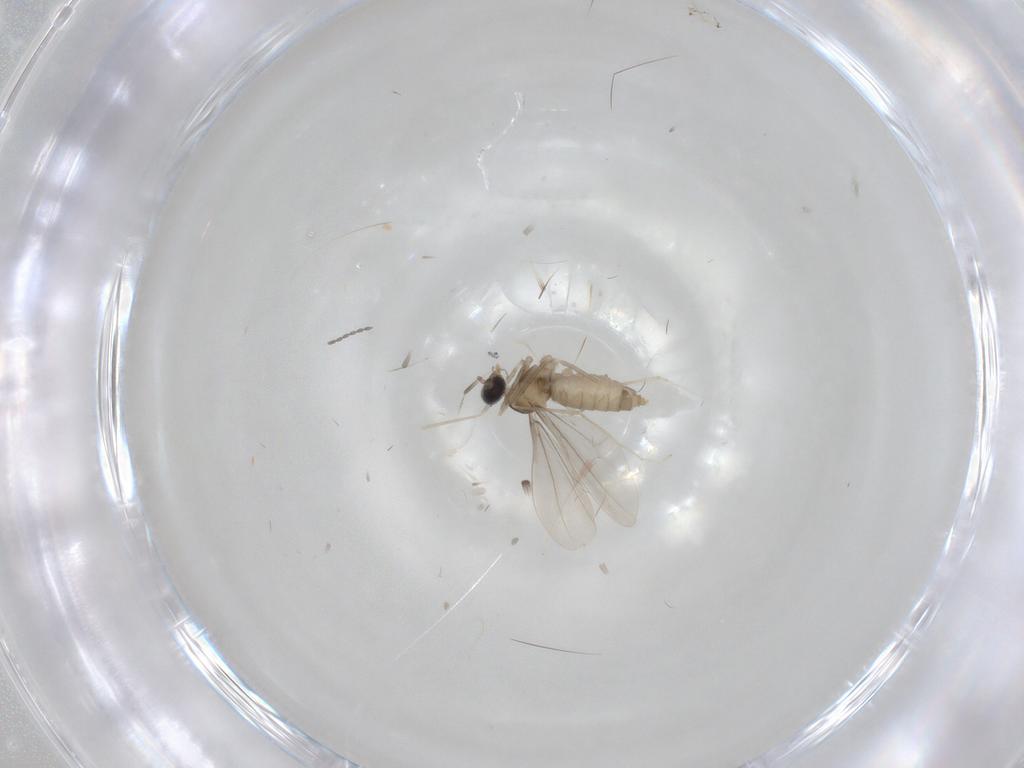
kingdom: Animalia
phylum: Arthropoda
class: Insecta
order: Diptera
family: Cecidomyiidae
